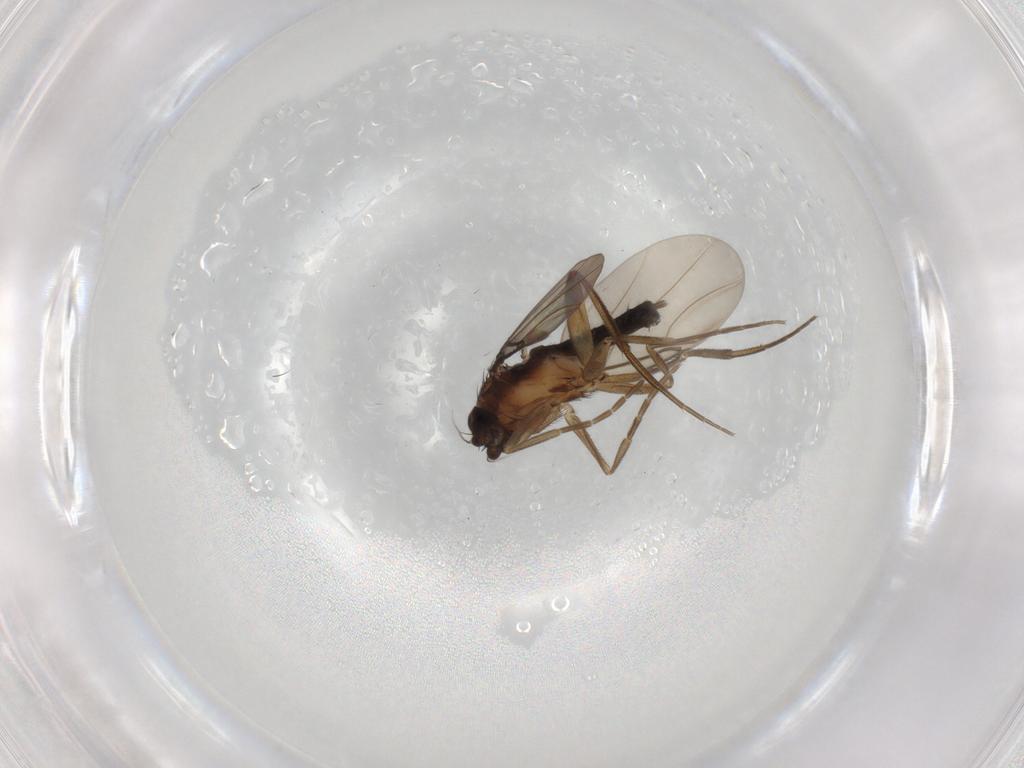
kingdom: Animalia
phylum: Arthropoda
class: Insecta
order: Diptera
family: Phoridae
